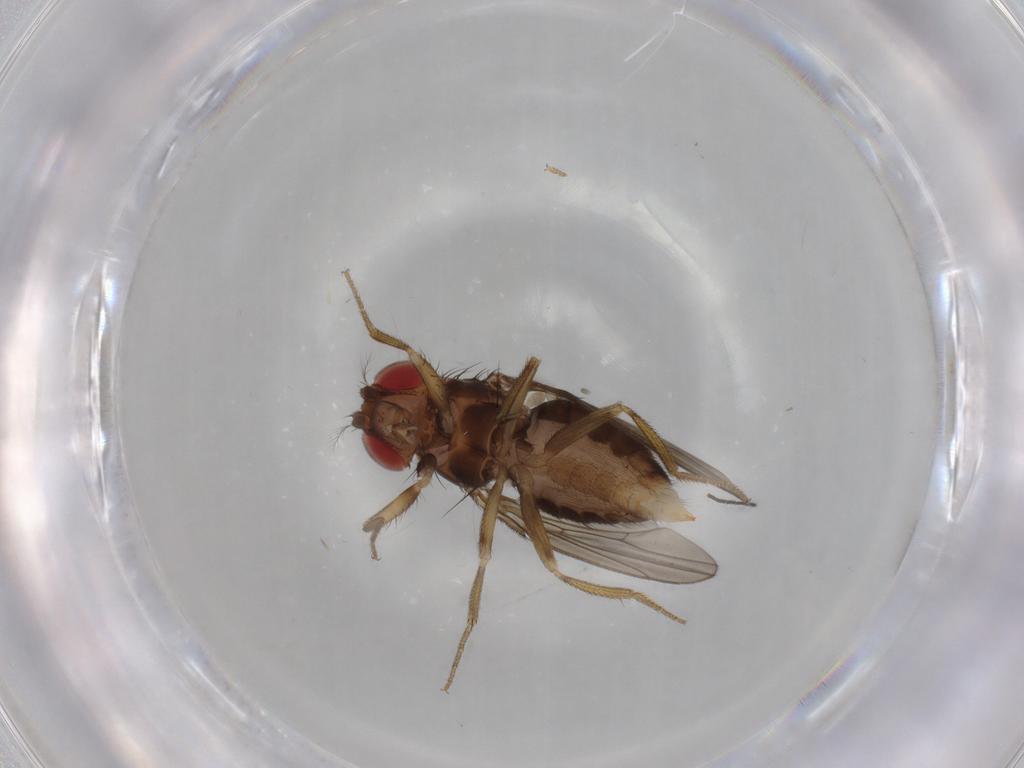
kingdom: Animalia
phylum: Arthropoda
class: Insecta
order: Diptera
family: Drosophilidae
